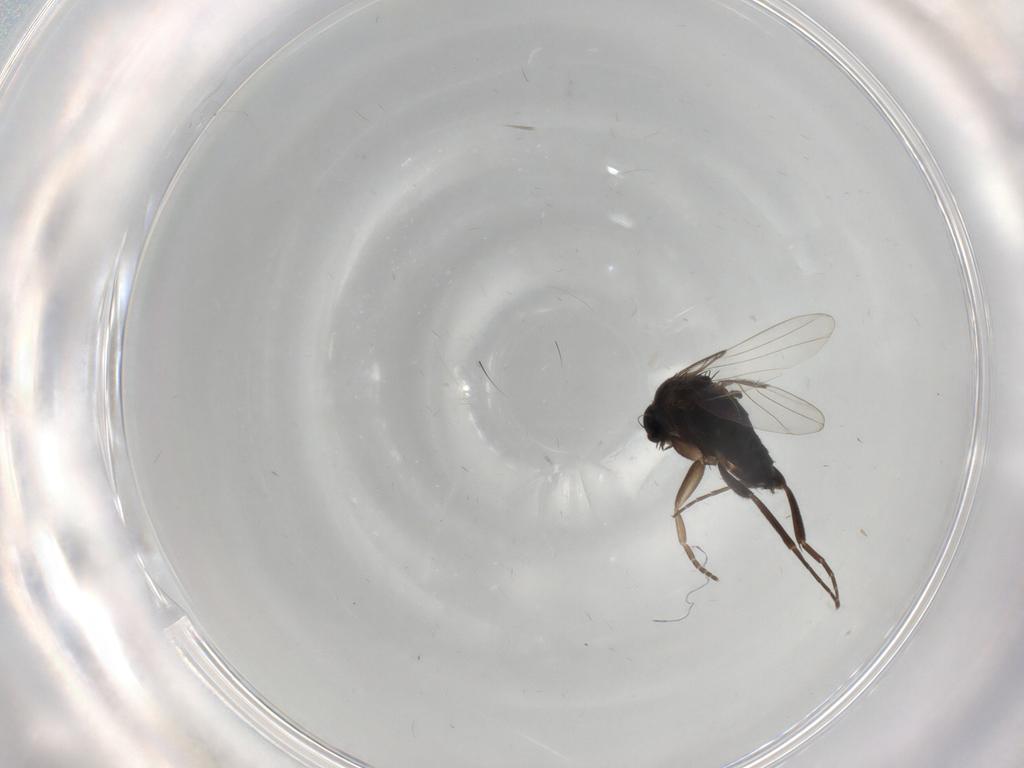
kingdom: Animalia
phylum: Arthropoda
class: Insecta
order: Diptera
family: Phoridae
